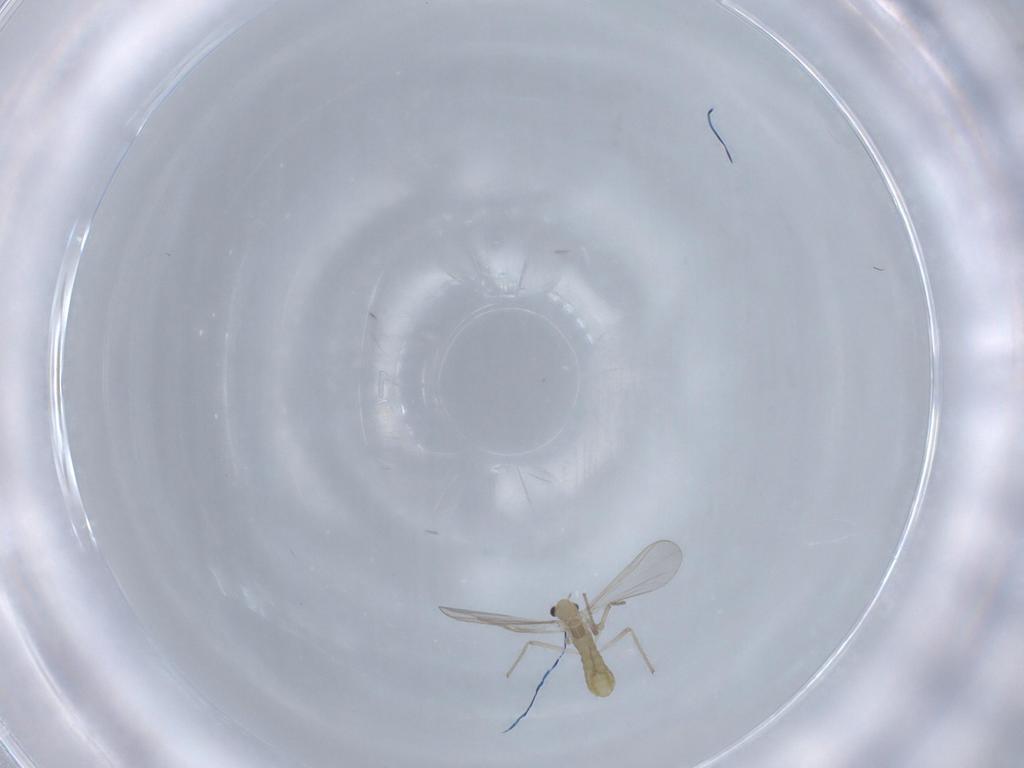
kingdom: Animalia
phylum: Arthropoda
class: Insecta
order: Diptera
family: Chironomidae
